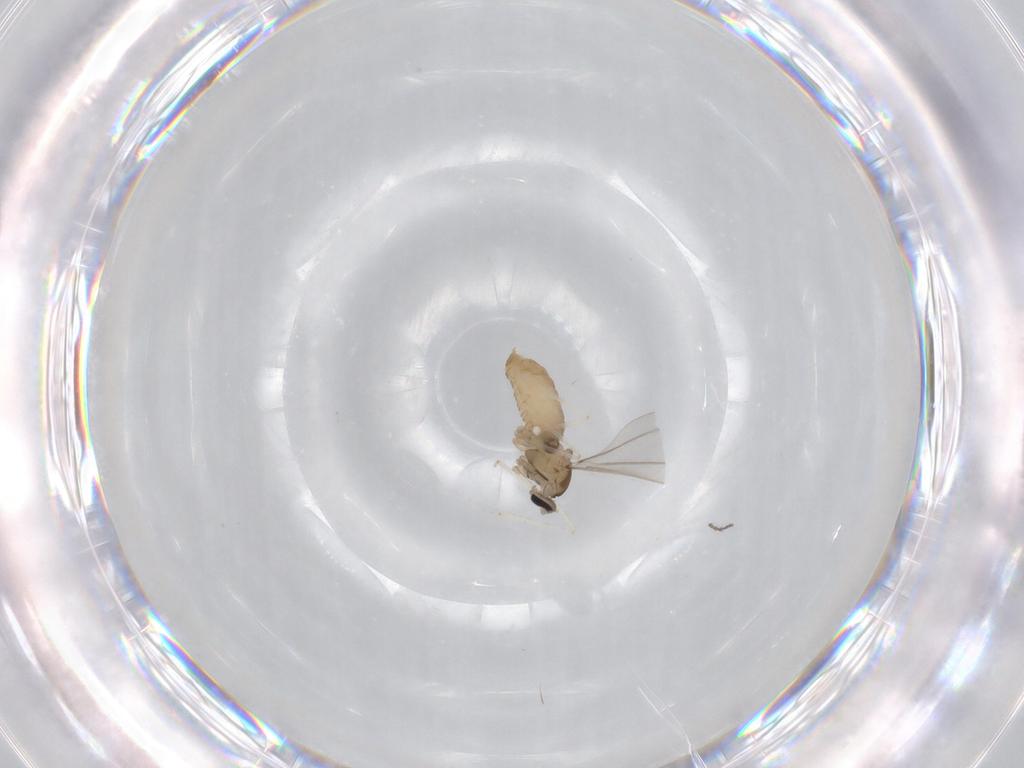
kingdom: Animalia
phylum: Arthropoda
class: Insecta
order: Diptera
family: Cecidomyiidae
